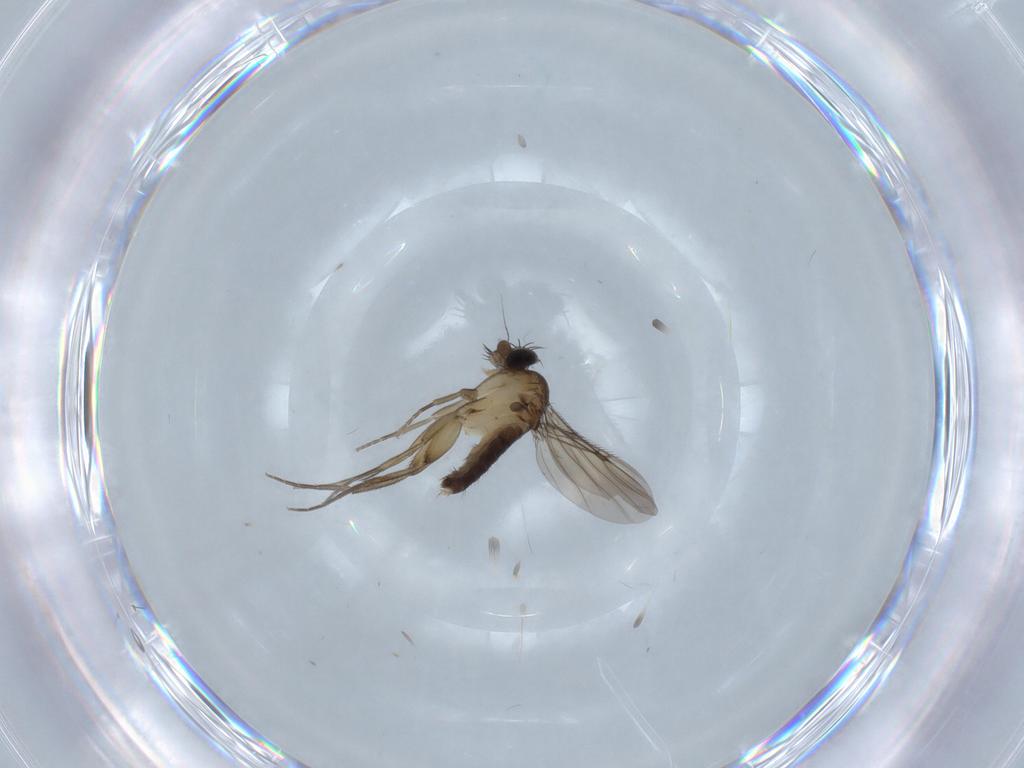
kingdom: Animalia
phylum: Arthropoda
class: Insecta
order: Diptera
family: Phoridae
